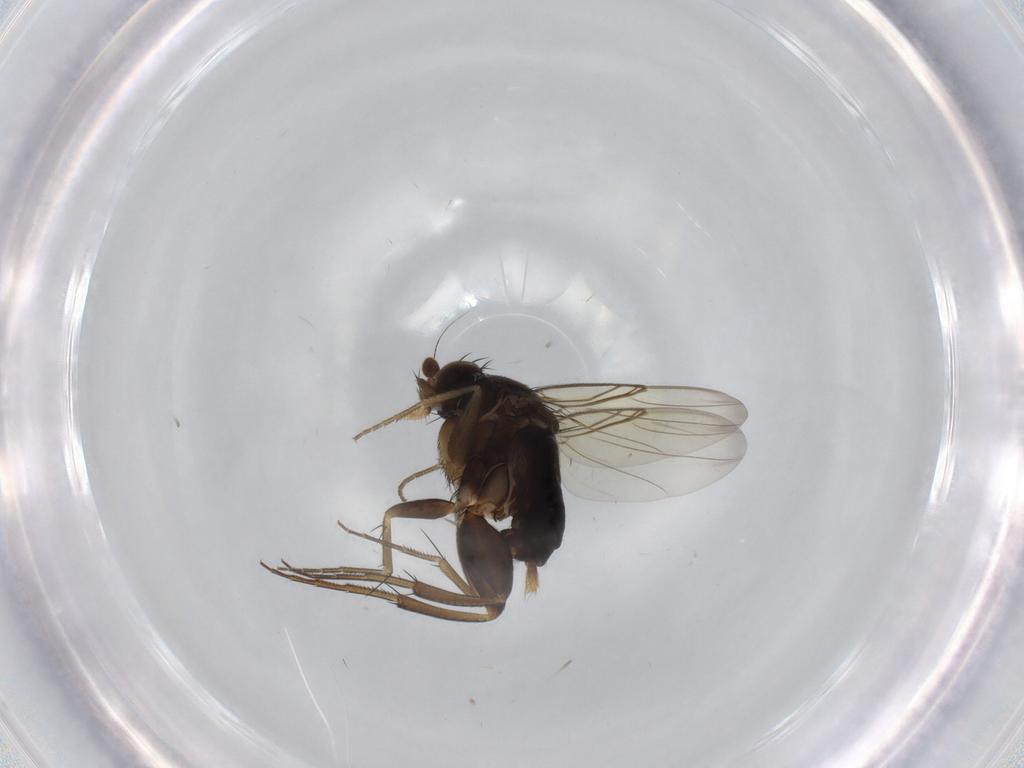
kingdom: Animalia
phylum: Arthropoda
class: Insecta
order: Diptera
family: Phoridae
